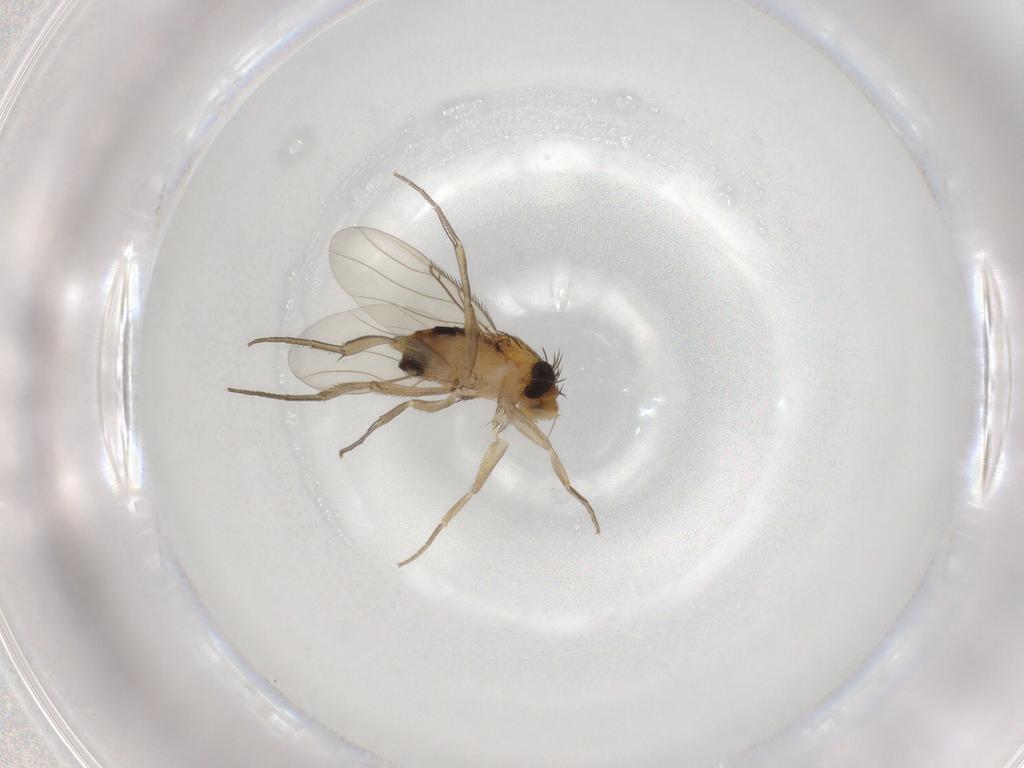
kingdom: Animalia
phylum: Arthropoda
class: Insecta
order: Diptera
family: Phoridae
